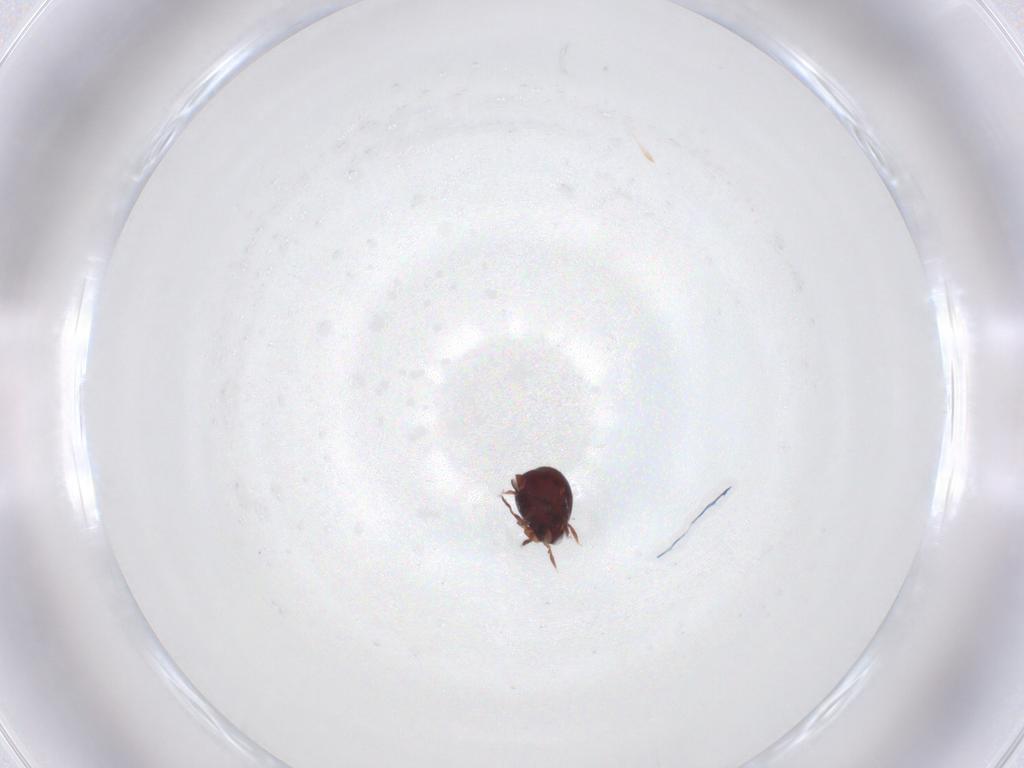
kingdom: Animalia
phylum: Arthropoda
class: Arachnida
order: Sarcoptiformes
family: Humerobatidae
